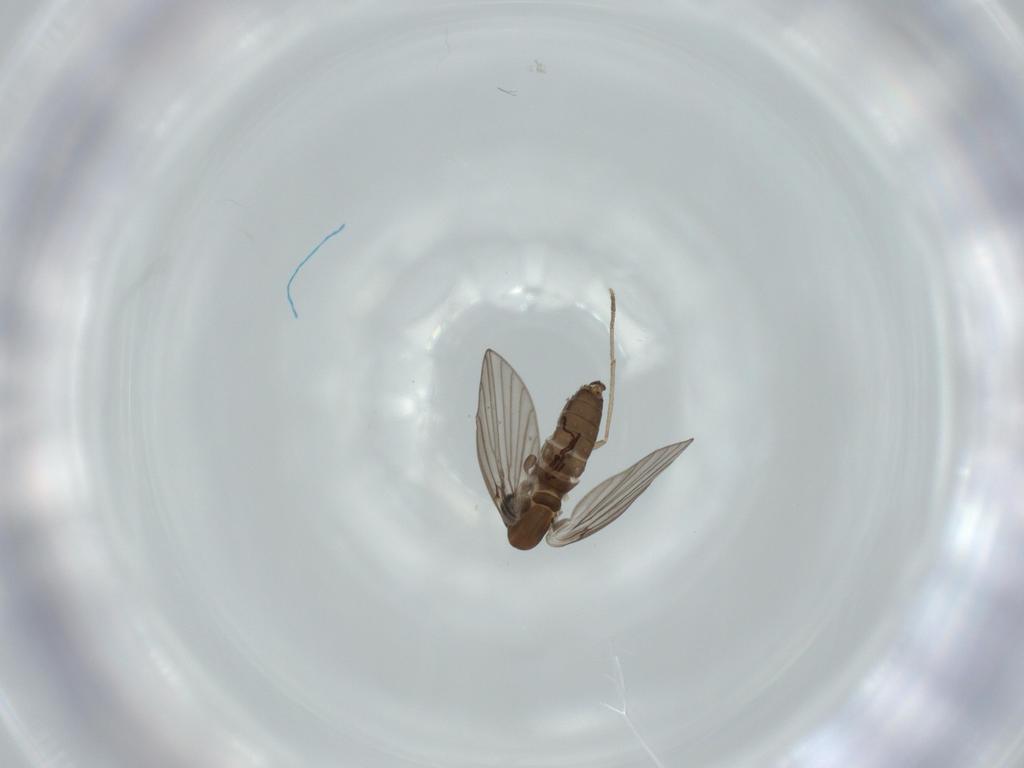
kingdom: Animalia
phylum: Arthropoda
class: Insecta
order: Diptera
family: Psychodidae
